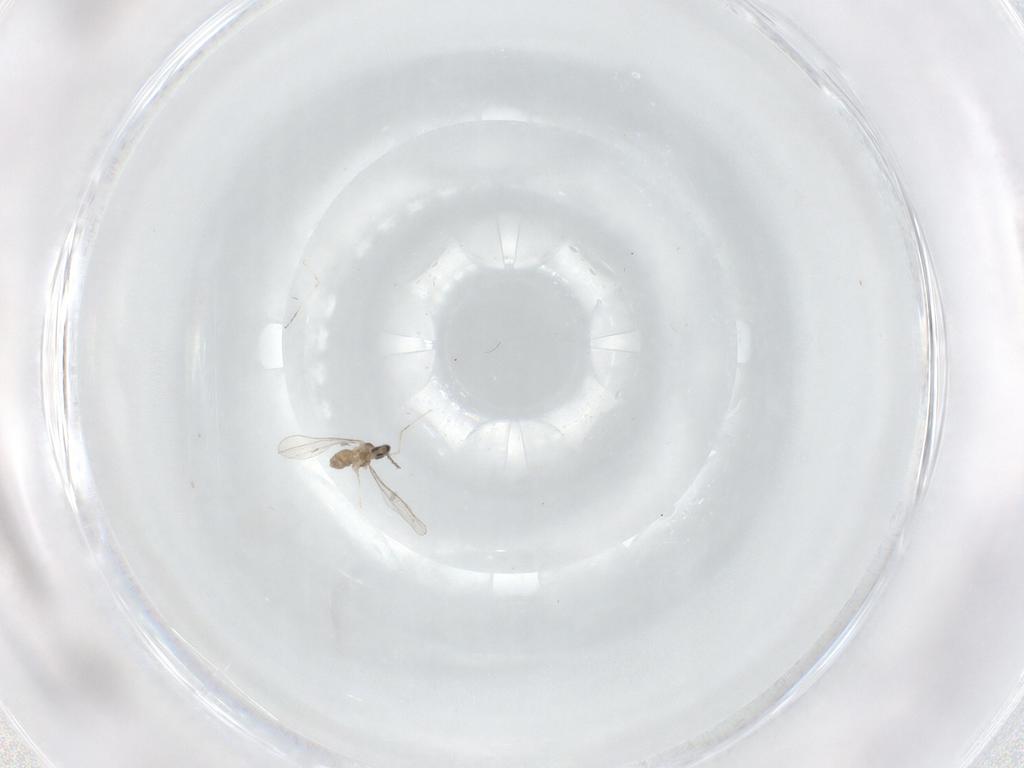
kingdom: Animalia
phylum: Arthropoda
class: Insecta
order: Diptera
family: Cecidomyiidae
